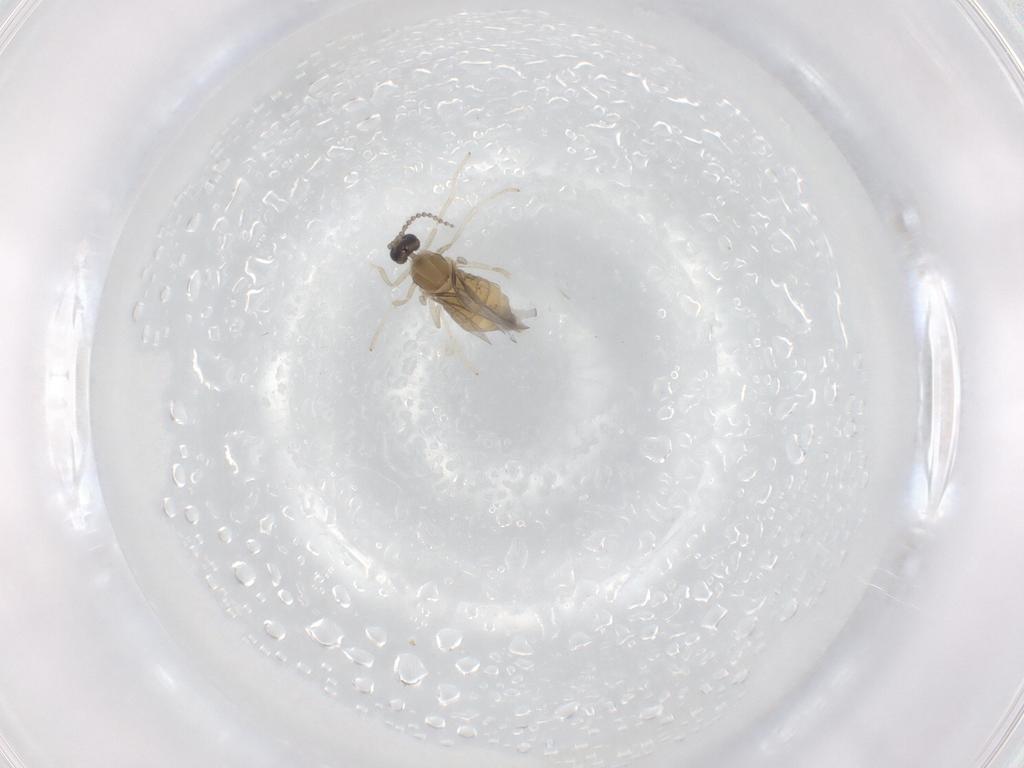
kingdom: Animalia
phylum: Arthropoda
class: Insecta
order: Diptera
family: Cecidomyiidae
